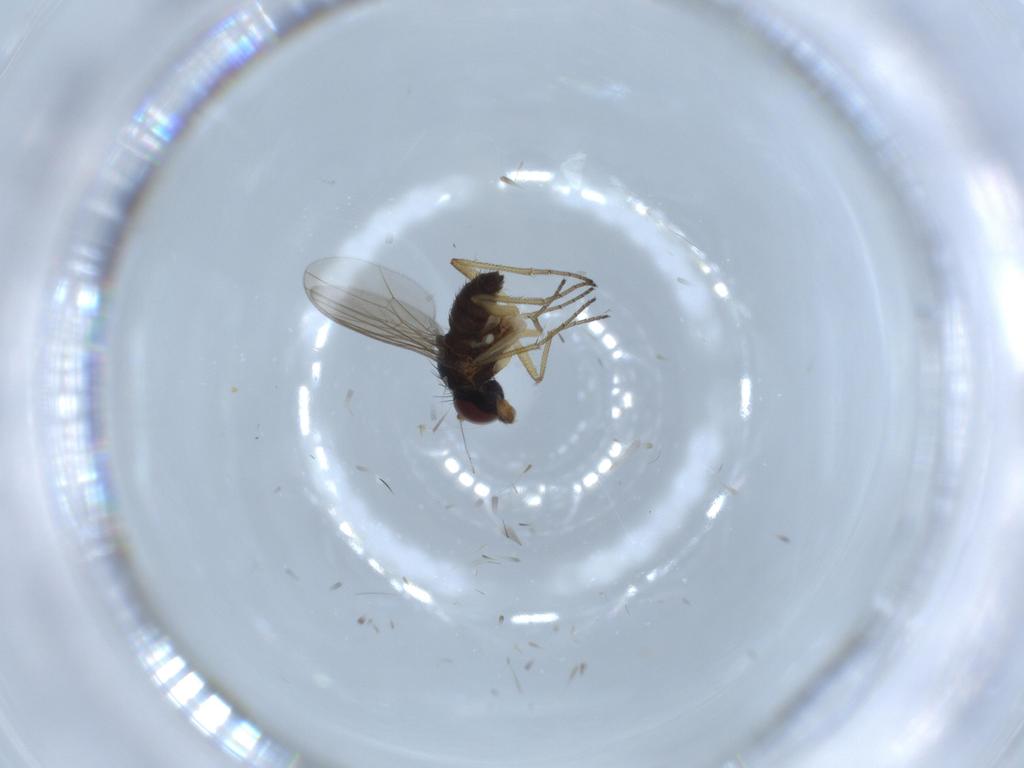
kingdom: Animalia
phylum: Arthropoda
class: Insecta
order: Diptera
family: Dolichopodidae
